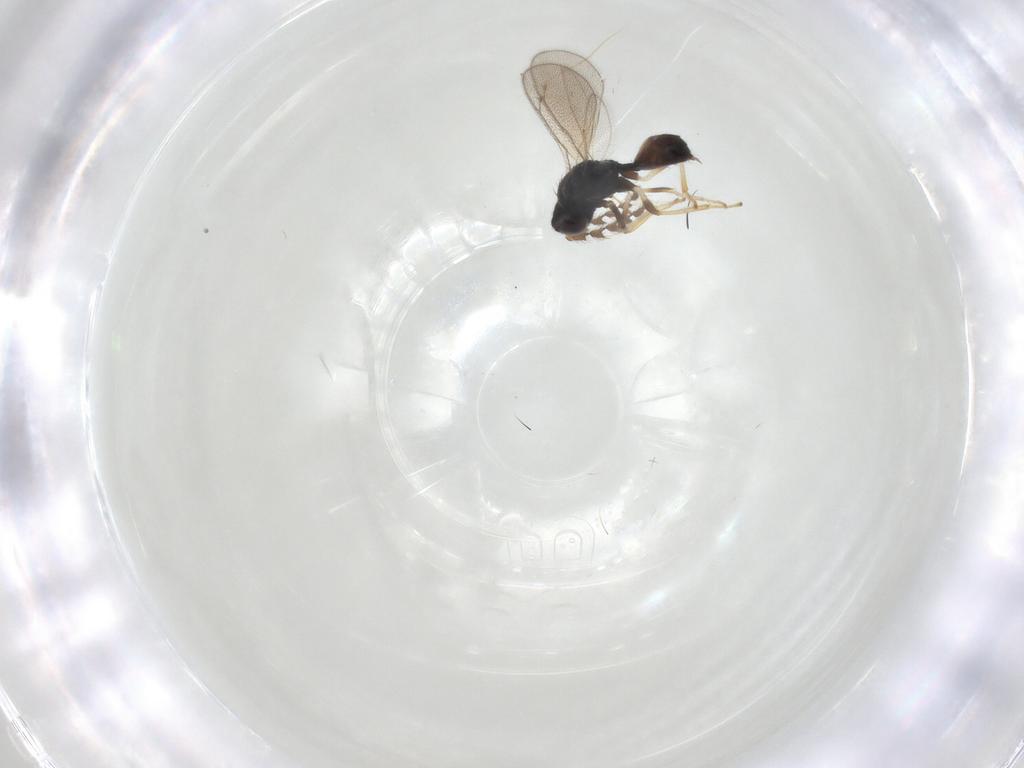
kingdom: Animalia
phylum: Arthropoda
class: Insecta
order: Hymenoptera
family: Eulophidae
